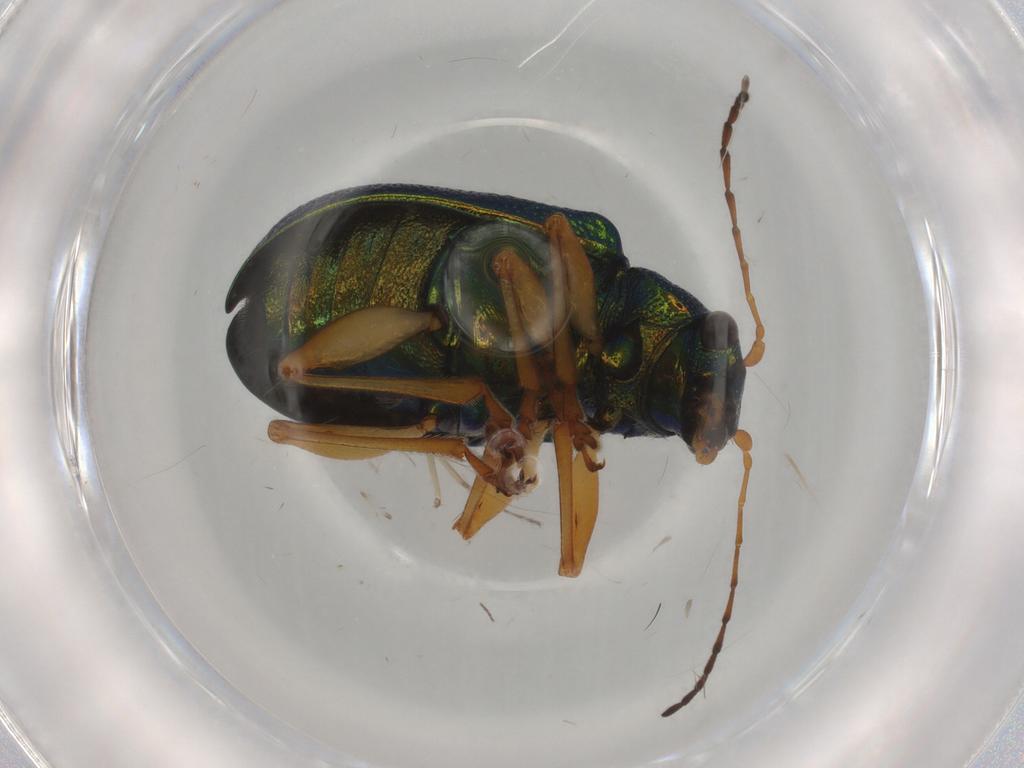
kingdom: Animalia
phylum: Arthropoda
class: Insecta
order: Coleoptera
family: Chrysomelidae
